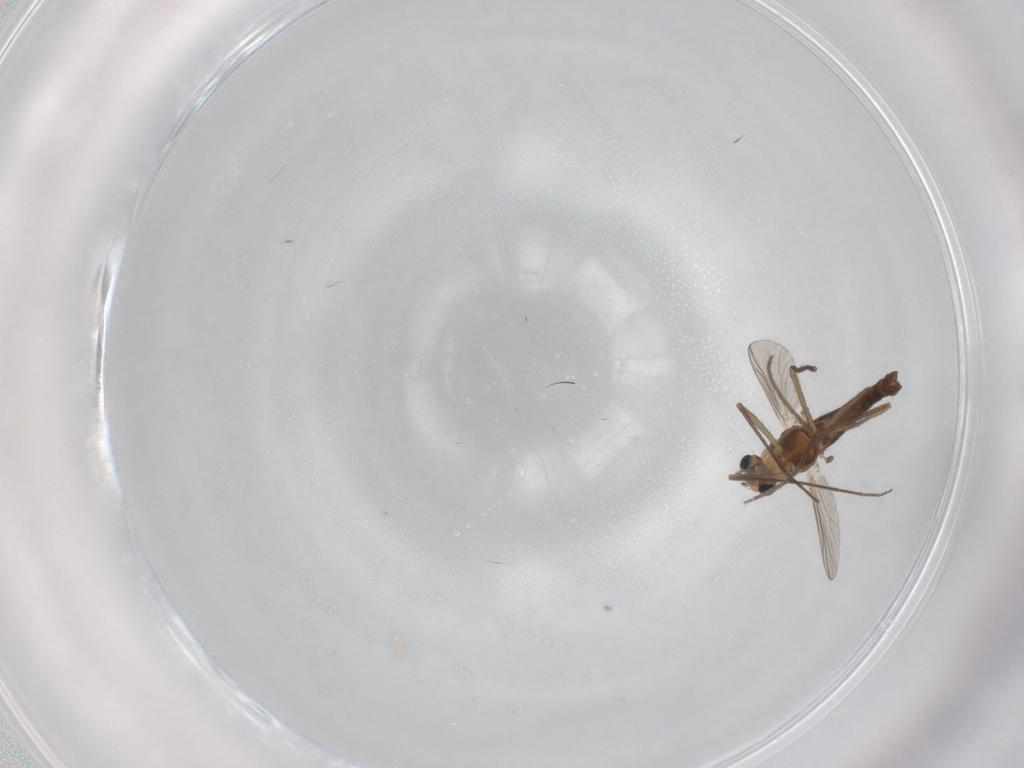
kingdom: Animalia
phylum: Arthropoda
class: Insecta
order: Diptera
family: Chironomidae
